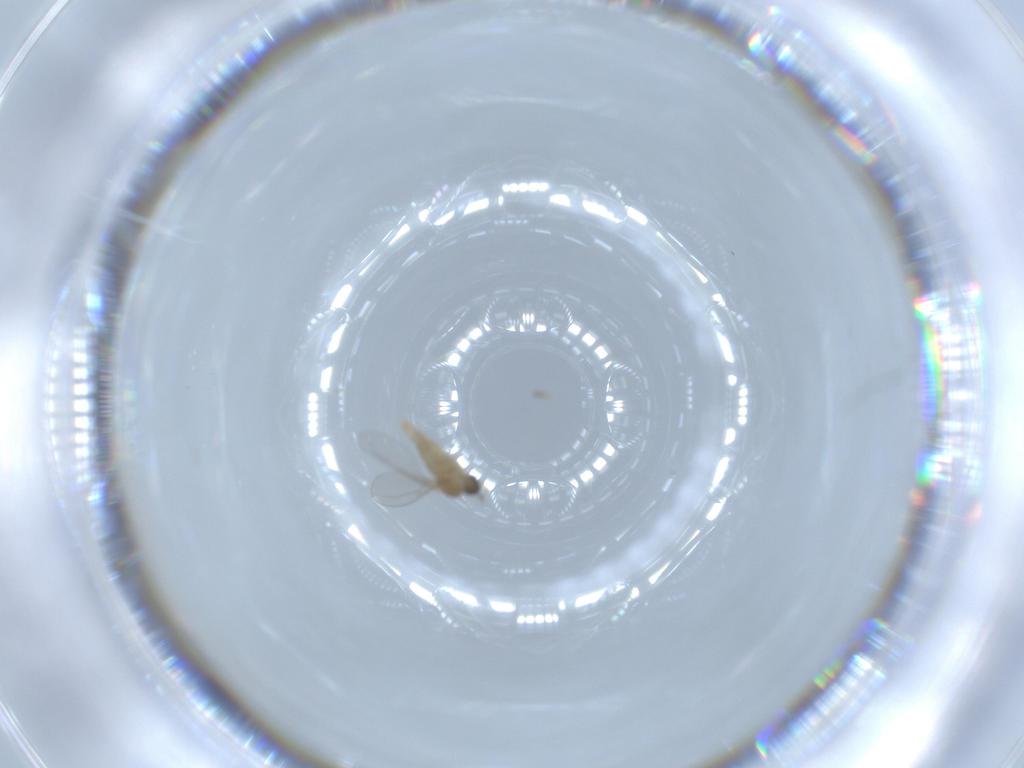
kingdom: Animalia
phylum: Arthropoda
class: Insecta
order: Diptera
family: Cecidomyiidae
